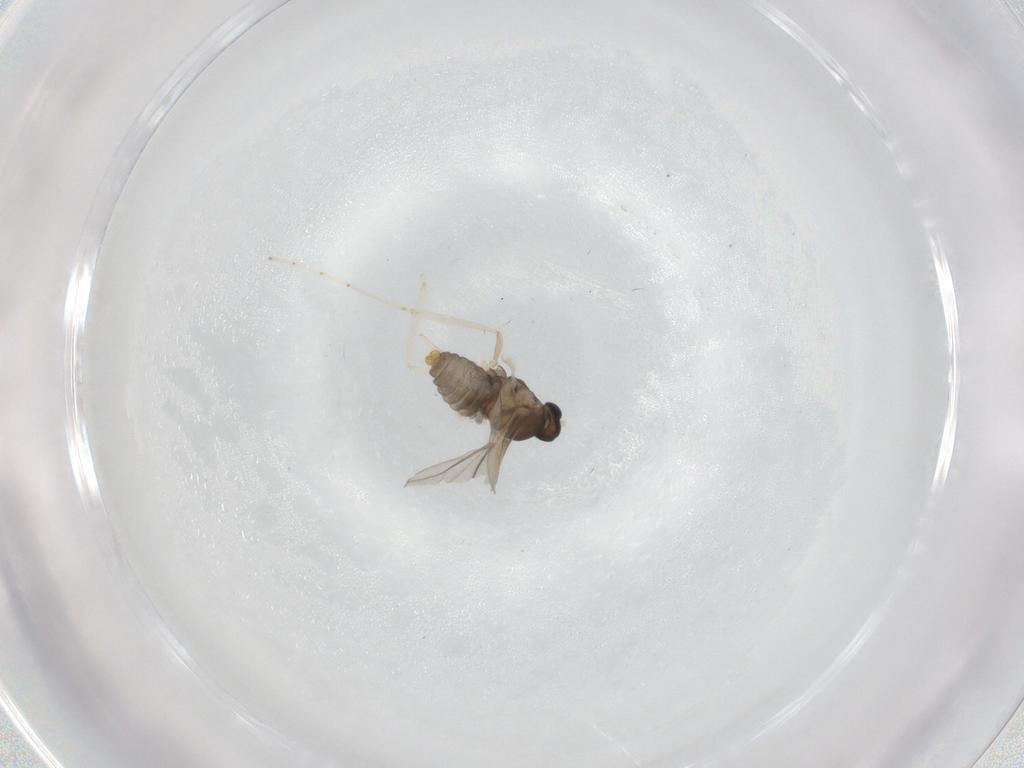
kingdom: Animalia
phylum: Arthropoda
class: Insecta
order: Diptera
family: Cecidomyiidae
